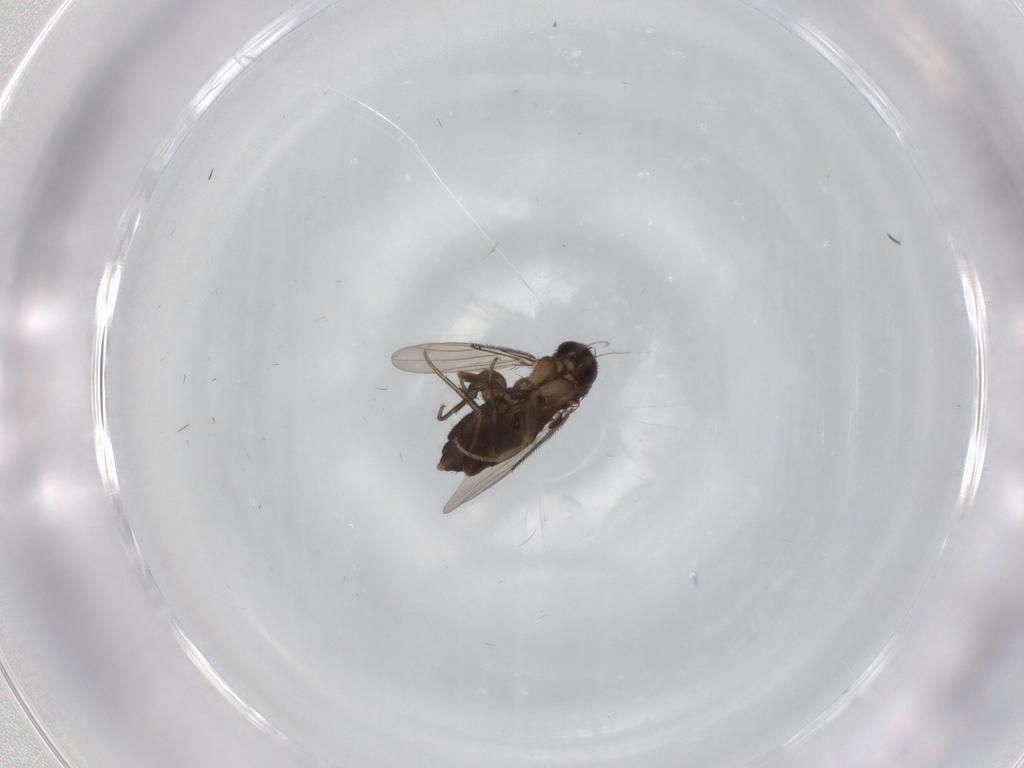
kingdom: Animalia
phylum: Arthropoda
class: Insecta
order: Diptera
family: Phoridae
